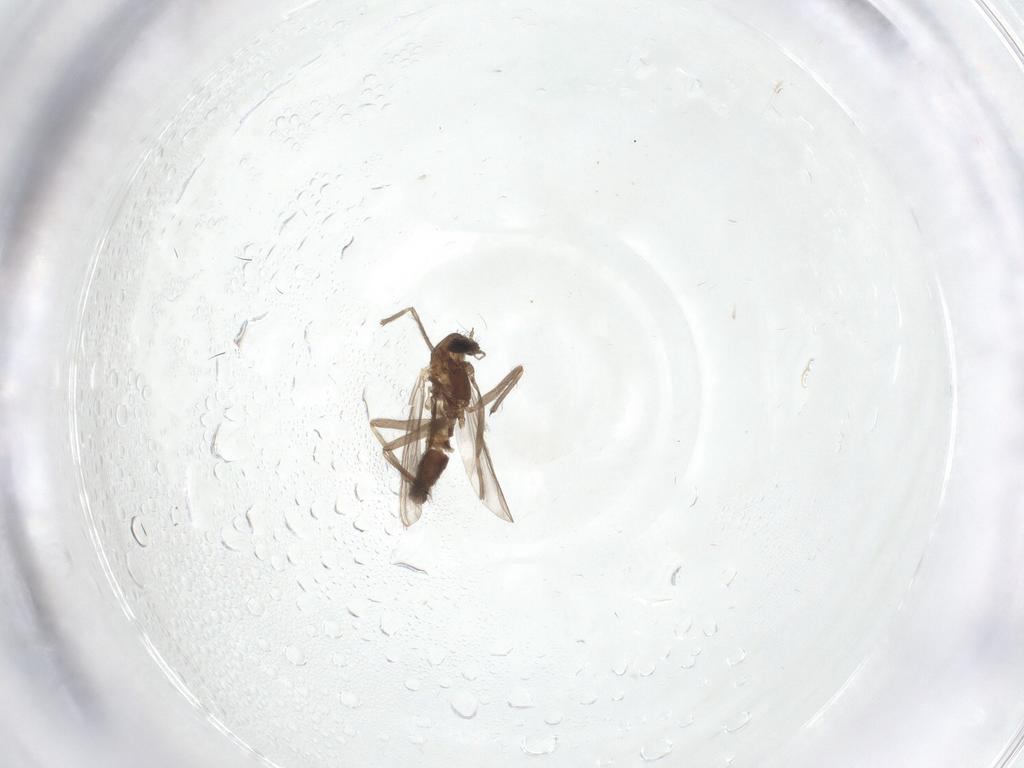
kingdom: Animalia
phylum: Arthropoda
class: Insecta
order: Diptera
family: Chironomidae
